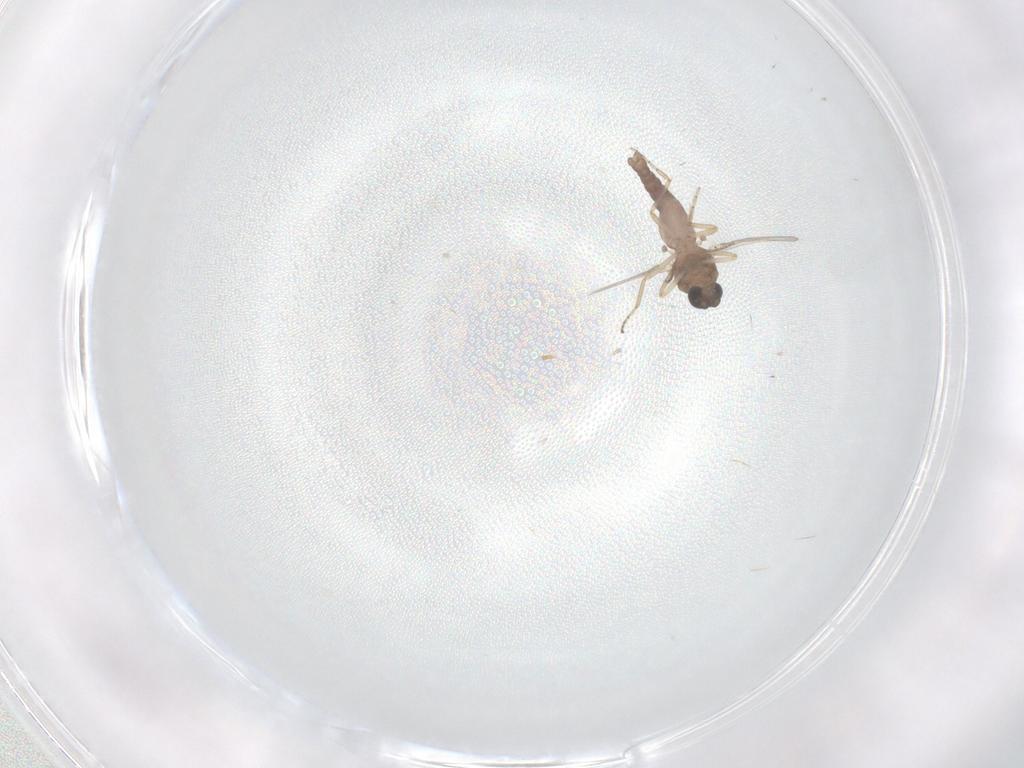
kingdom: Animalia
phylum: Arthropoda
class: Insecta
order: Diptera
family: Ceratopogonidae
